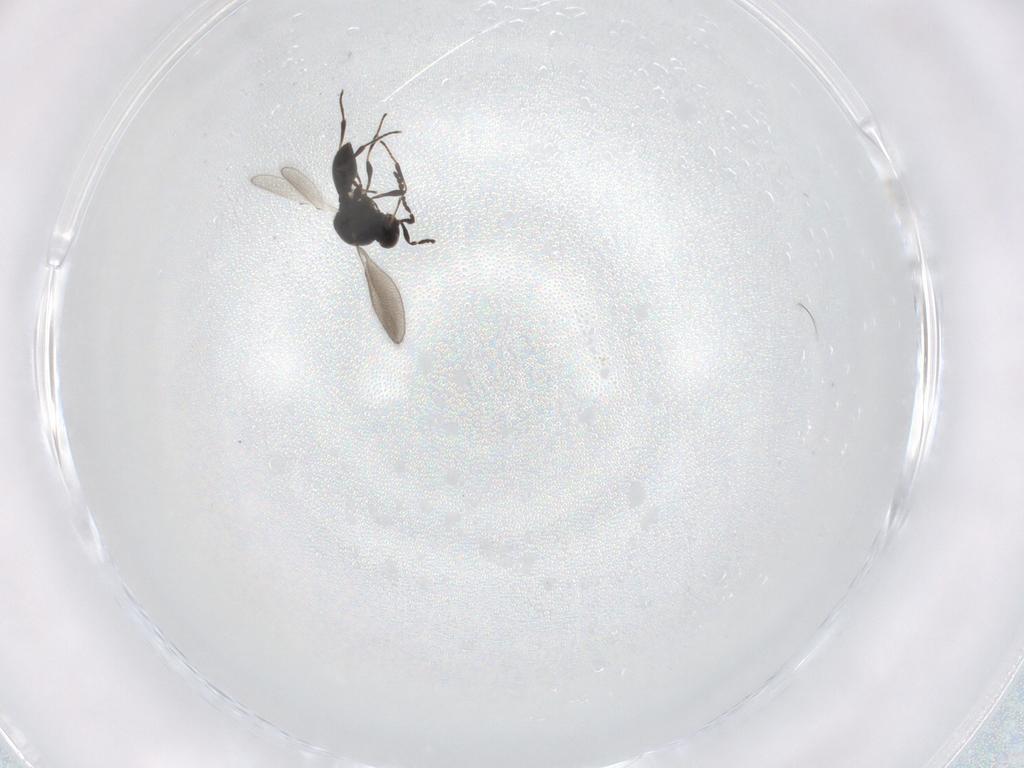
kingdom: Animalia
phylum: Arthropoda
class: Insecta
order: Hymenoptera
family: Platygastridae
